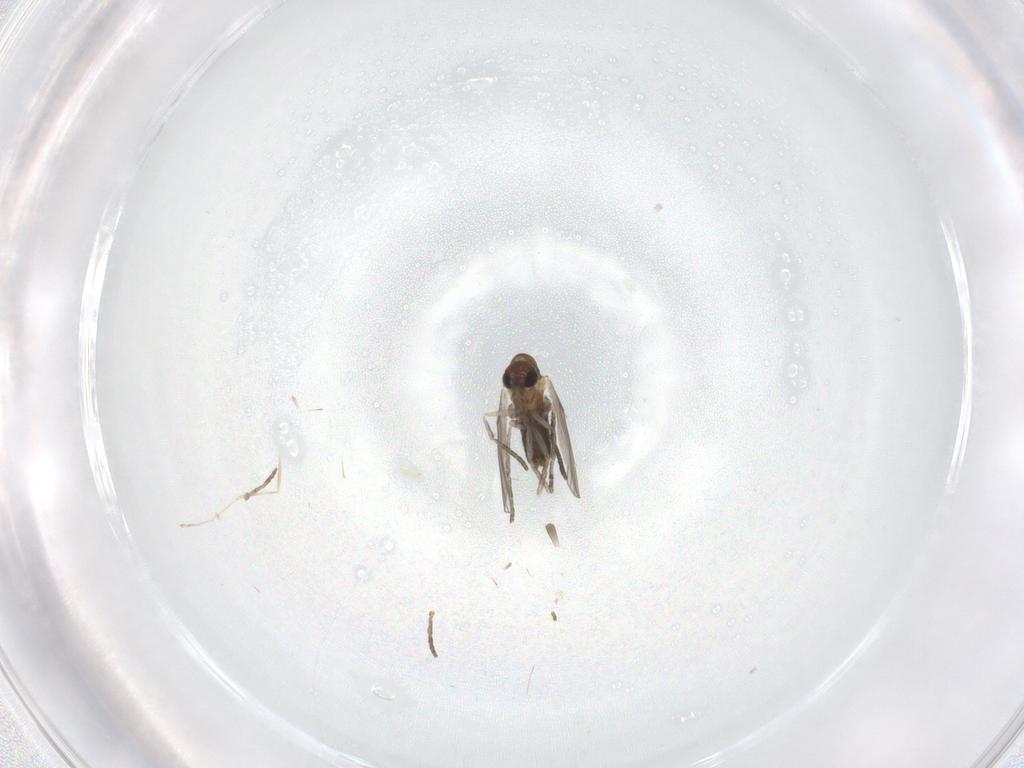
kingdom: Animalia
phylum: Arthropoda
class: Insecta
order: Diptera
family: Psychodidae
